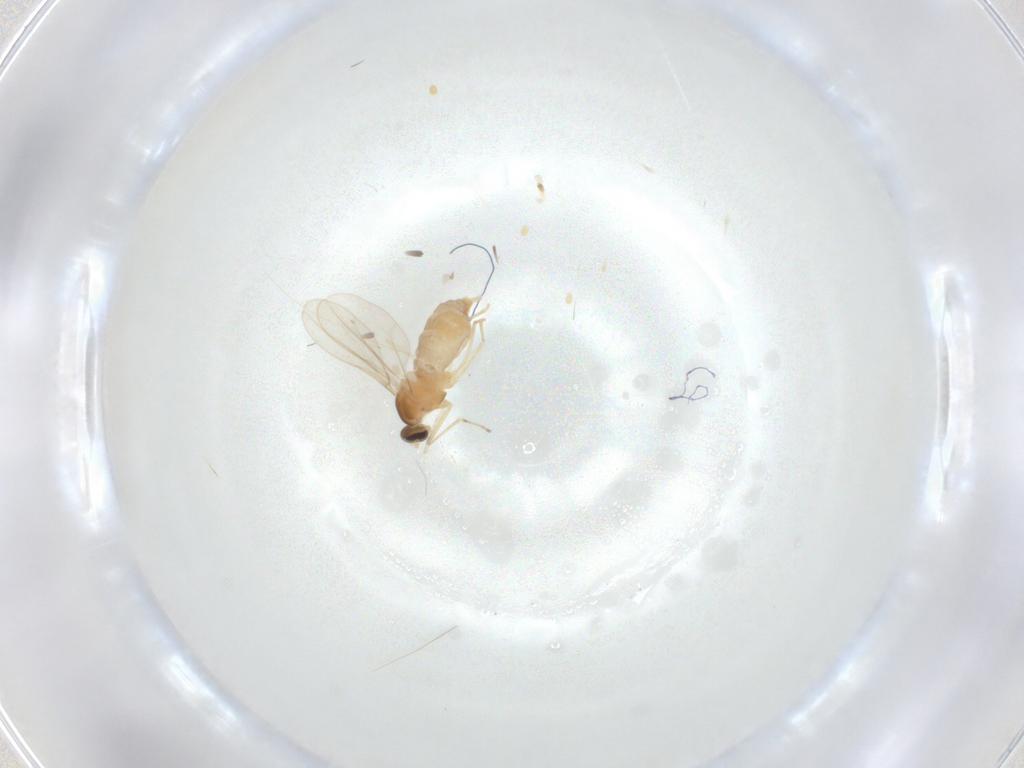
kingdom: Animalia
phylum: Arthropoda
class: Insecta
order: Diptera
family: Cecidomyiidae
